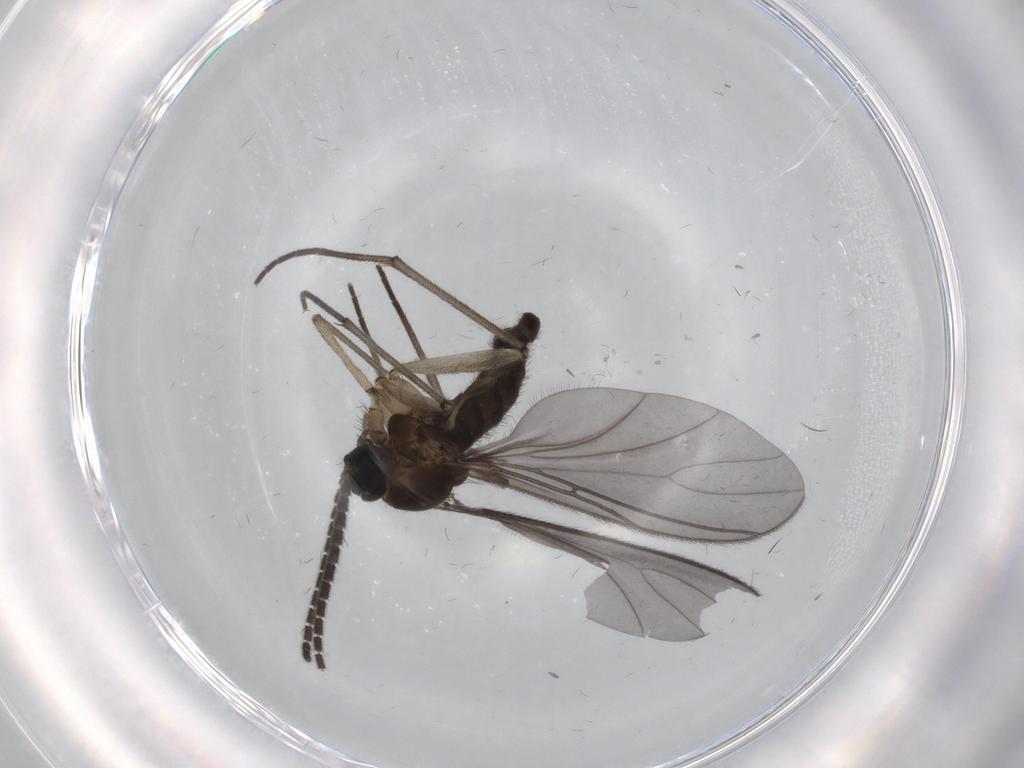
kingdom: Animalia
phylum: Arthropoda
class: Insecta
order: Diptera
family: Sciaridae
